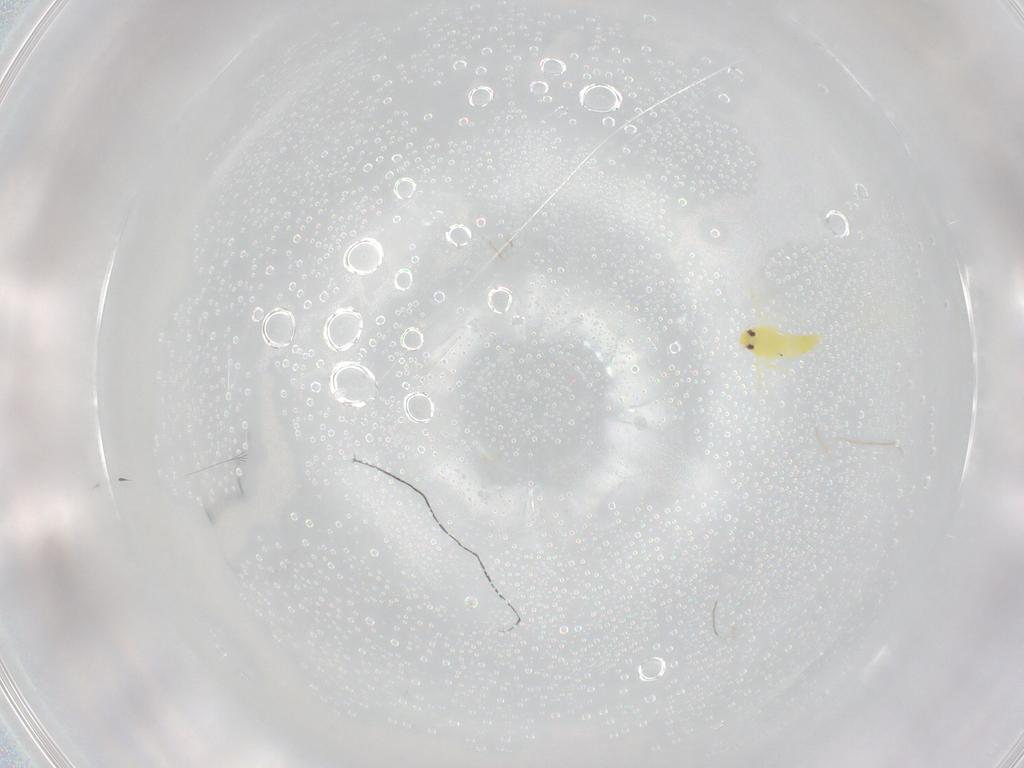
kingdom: Animalia
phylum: Arthropoda
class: Insecta
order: Hemiptera
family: Aleyrodidae
